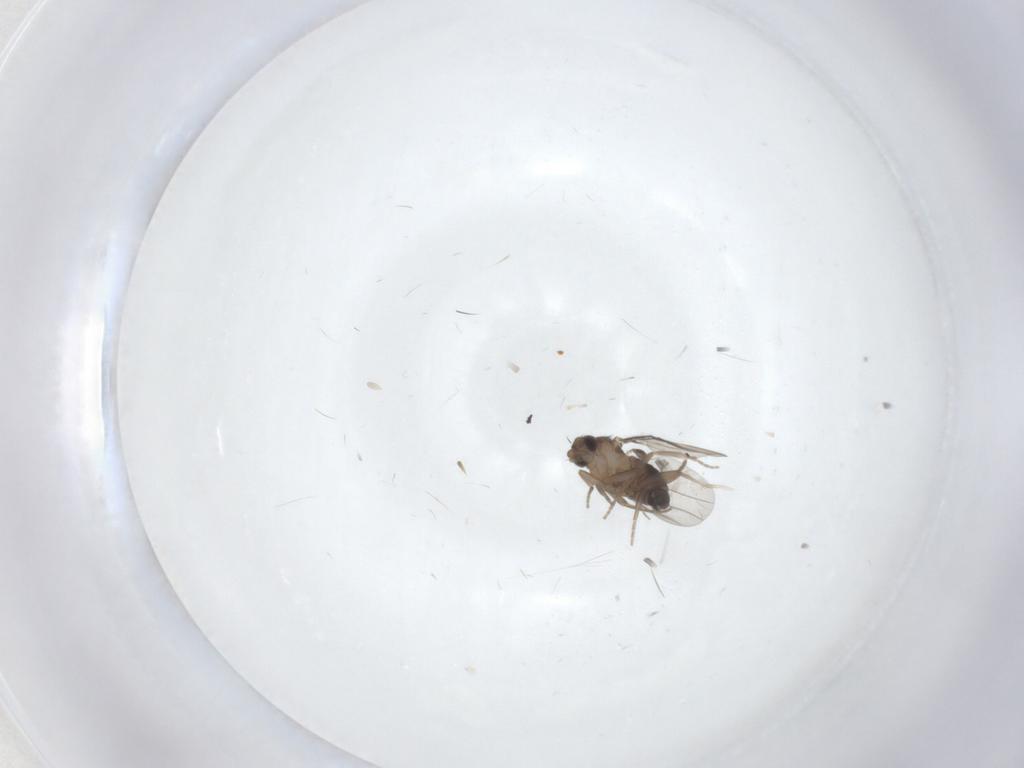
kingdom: Animalia
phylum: Arthropoda
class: Insecta
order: Diptera
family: Phoridae
